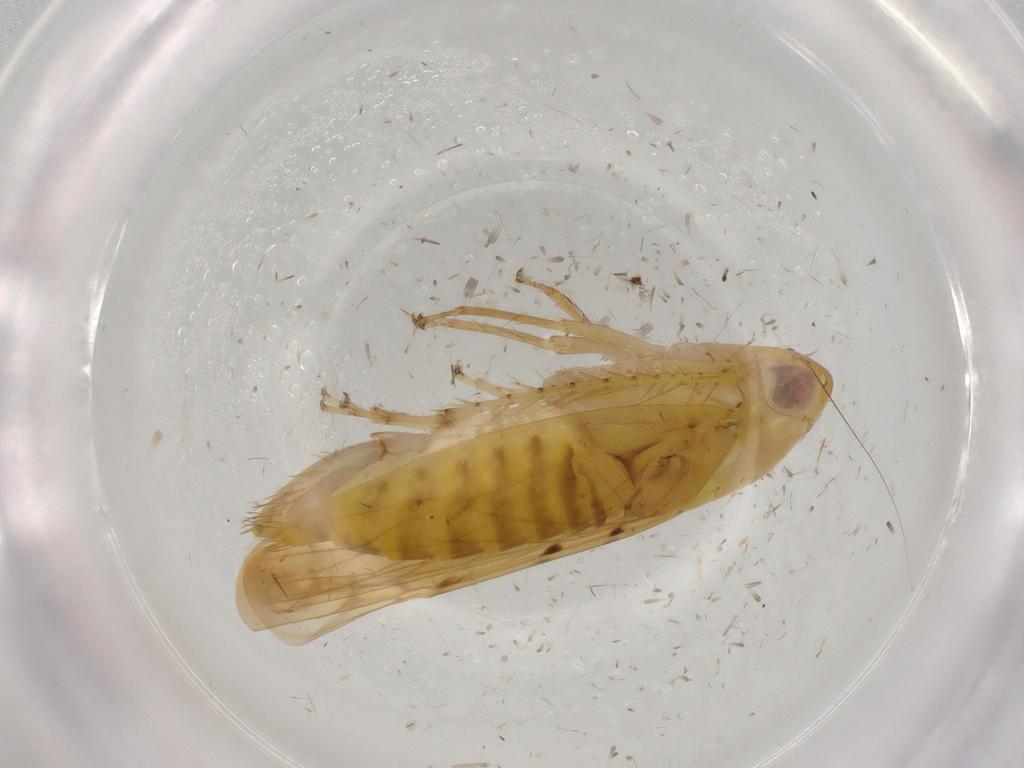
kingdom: Animalia
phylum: Arthropoda
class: Insecta
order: Hemiptera
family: Cicadellidae
